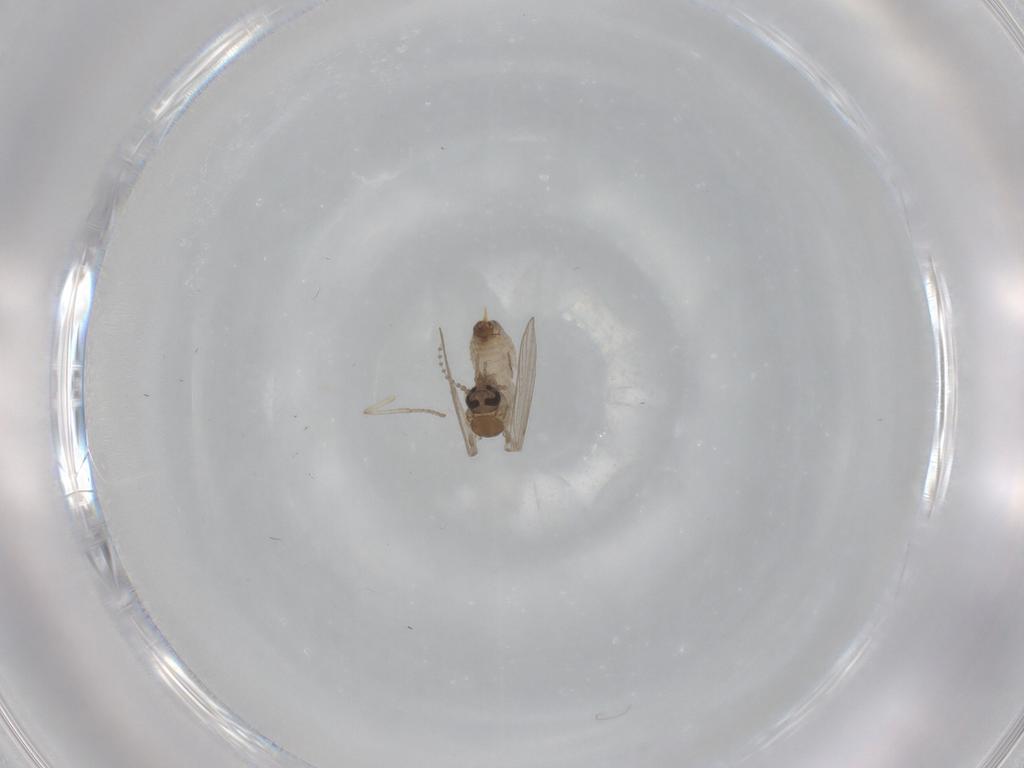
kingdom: Animalia
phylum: Arthropoda
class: Insecta
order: Diptera
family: Psychodidae
